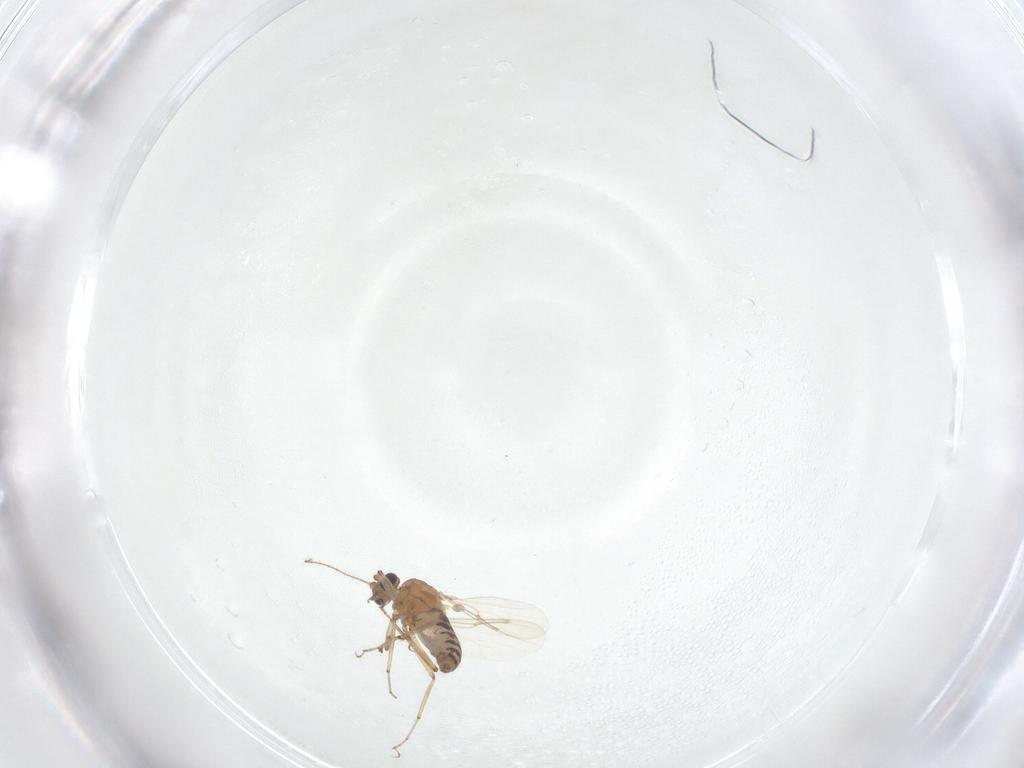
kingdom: Animalia
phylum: Arthropoda
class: Insecta
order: Diptera
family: Ceratopogonidae
